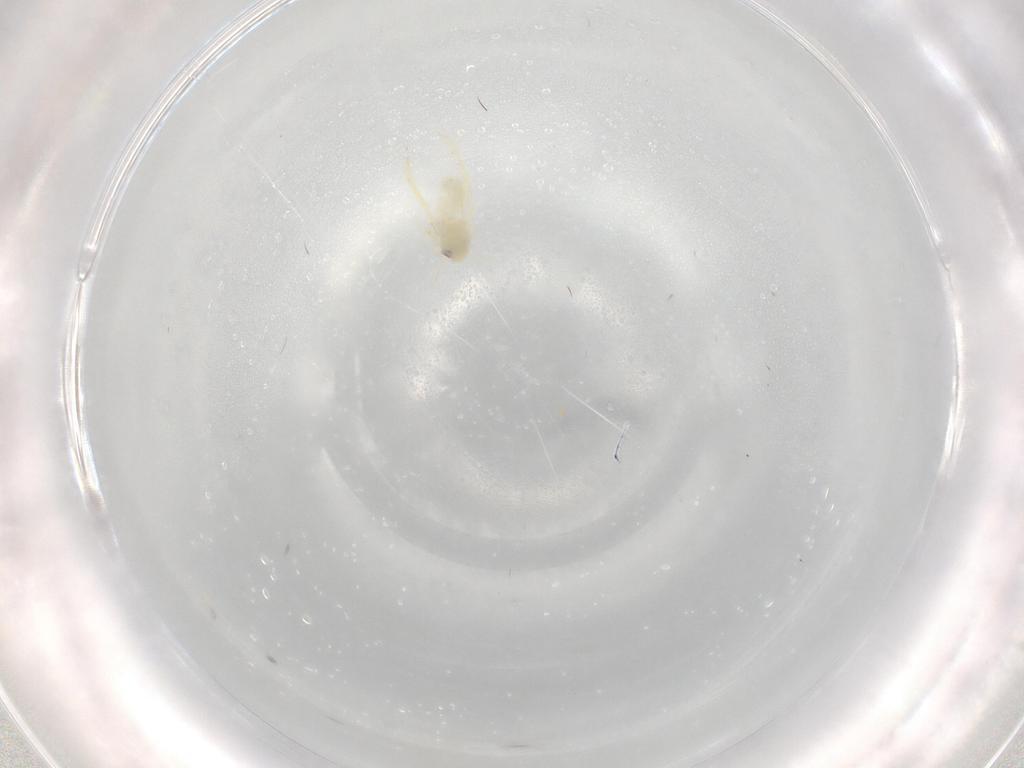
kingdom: Animalia
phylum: Arthropoda
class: Insecta
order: Hemiptera
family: Aleyrodidae
